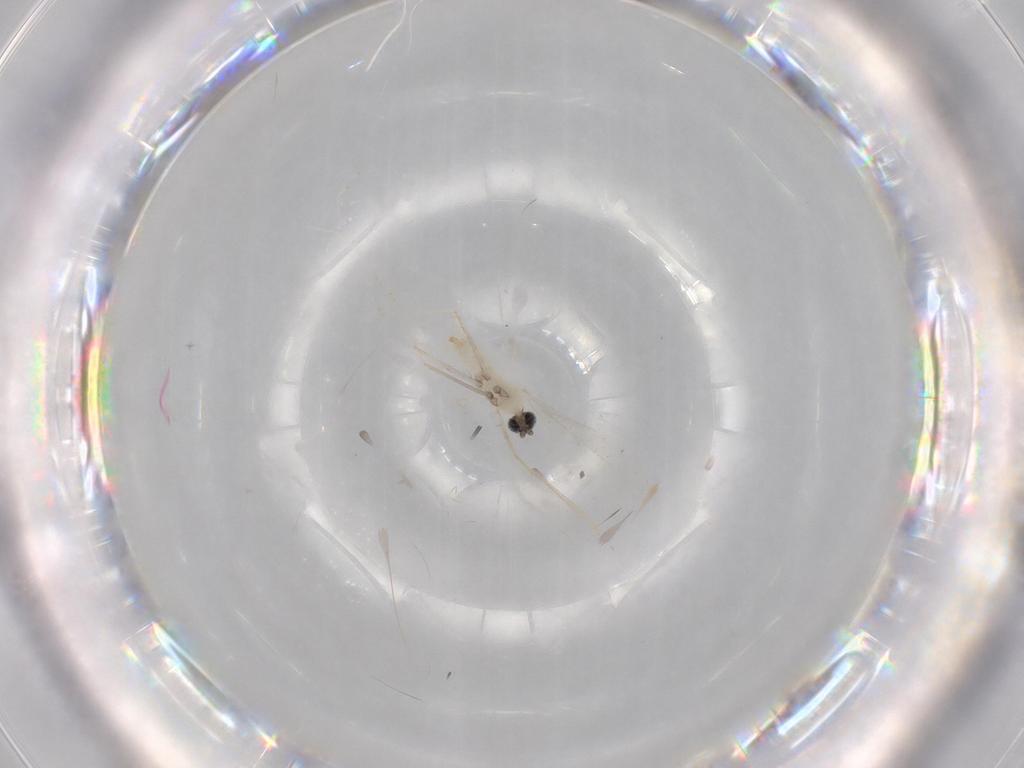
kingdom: Animalia
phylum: Arthropoda
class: Insecta
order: Diptera
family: Cecidomyiidae
